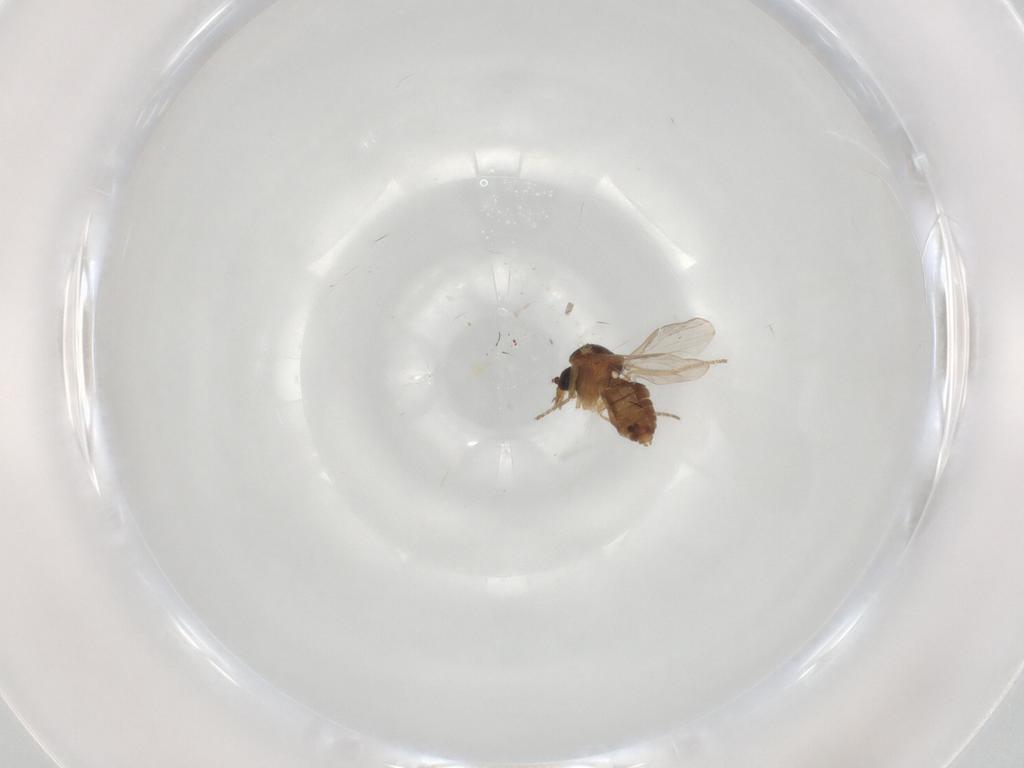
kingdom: Animalia
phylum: Arthropoda
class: Insecta
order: Diptera
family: Ceratopogonidae
